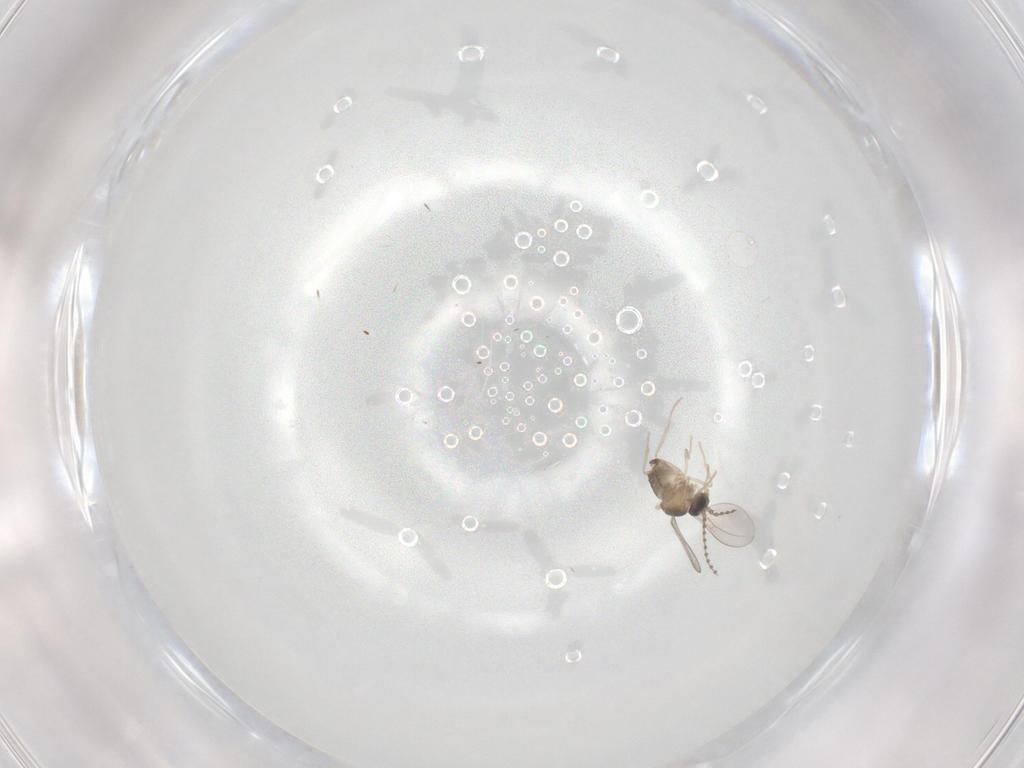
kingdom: Animalia
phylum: Arthropoda
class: Insecta
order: Diptera
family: Cecidomyiidae
